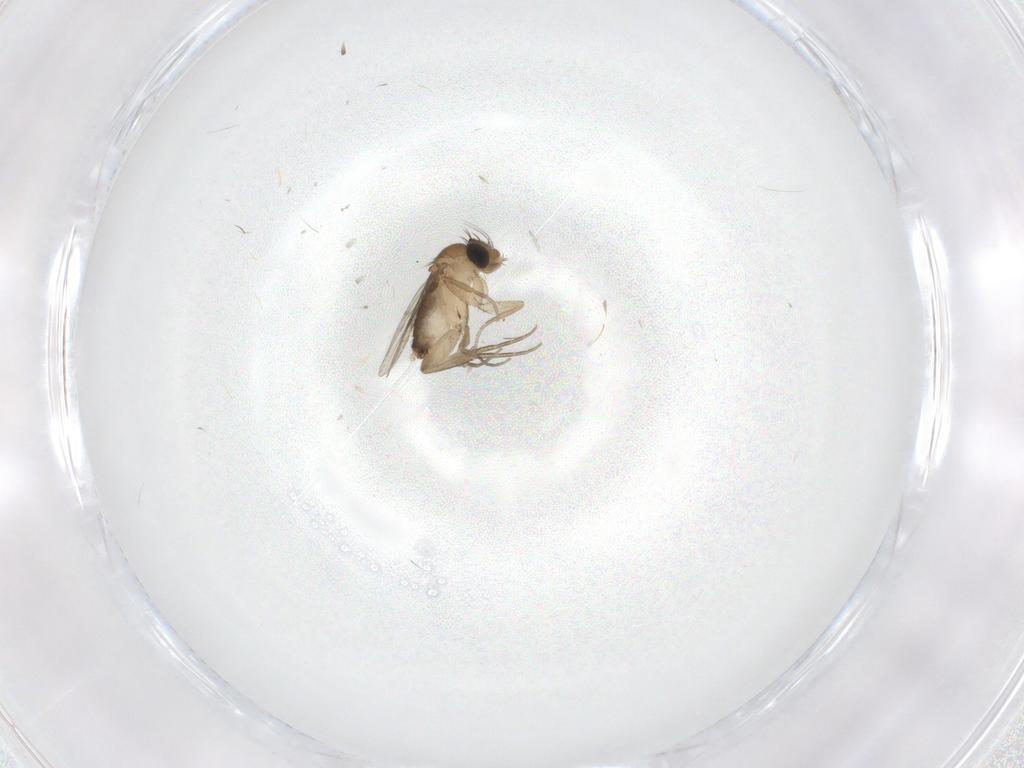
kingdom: Animalia
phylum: Arthropoda
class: Insecta
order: Diptera
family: Phoridae
